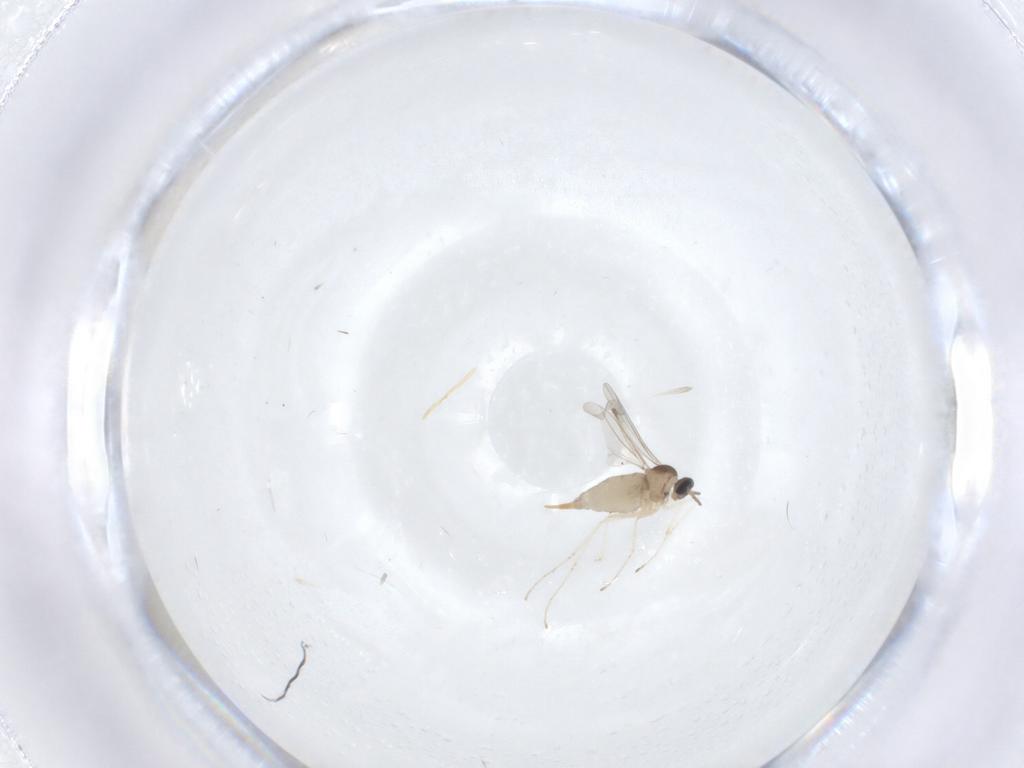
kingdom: Animalia
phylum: Arthropoda
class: Insecta
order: Diptera
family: Cecidomyiidae
